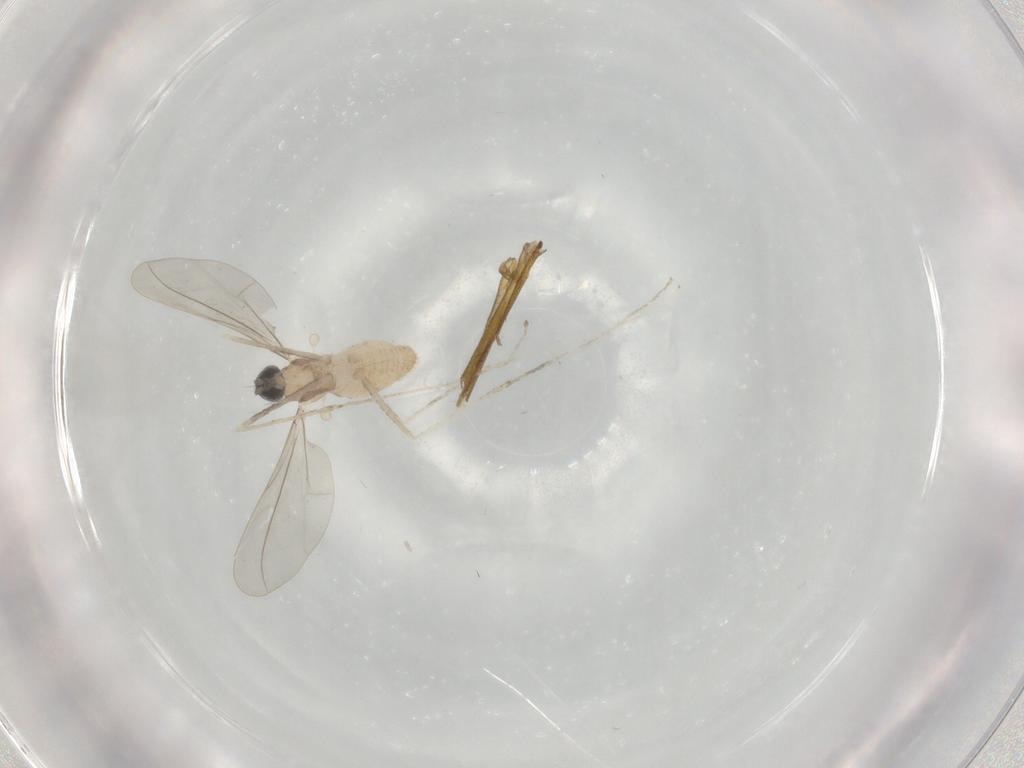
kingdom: Animalia
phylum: Arthropoda
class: Insecta
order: Diptera
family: Cecidomyiidae
